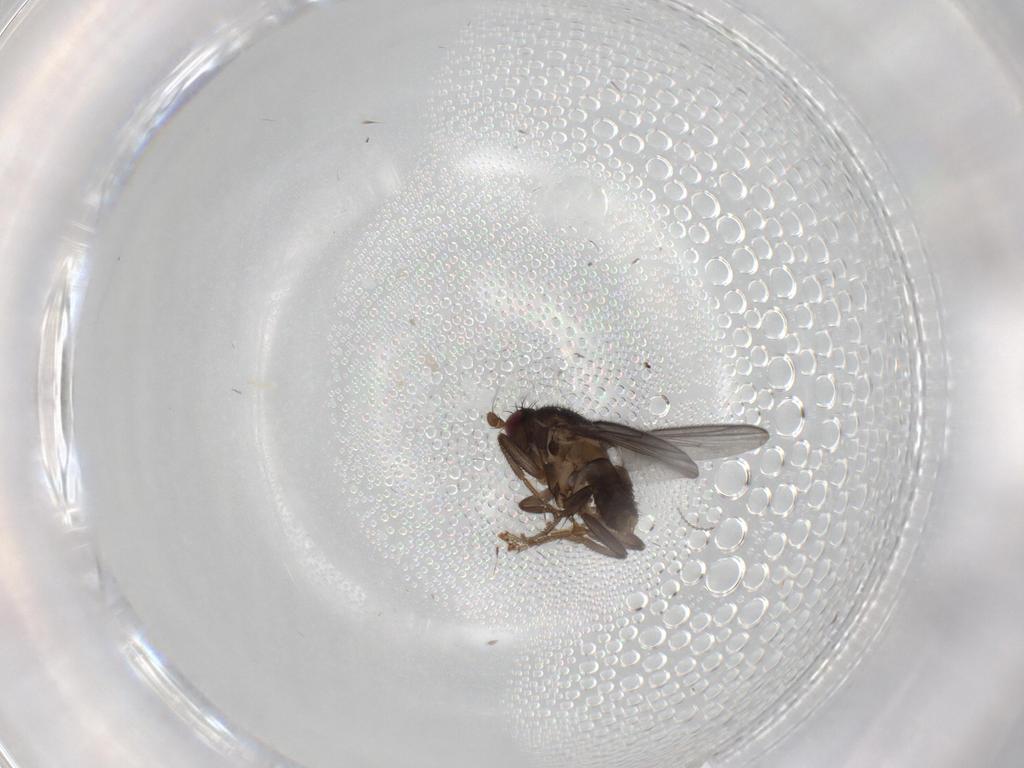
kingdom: Animalia
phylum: Arthropoda
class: Insecta
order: Diptera
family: Sphaeroceridae
